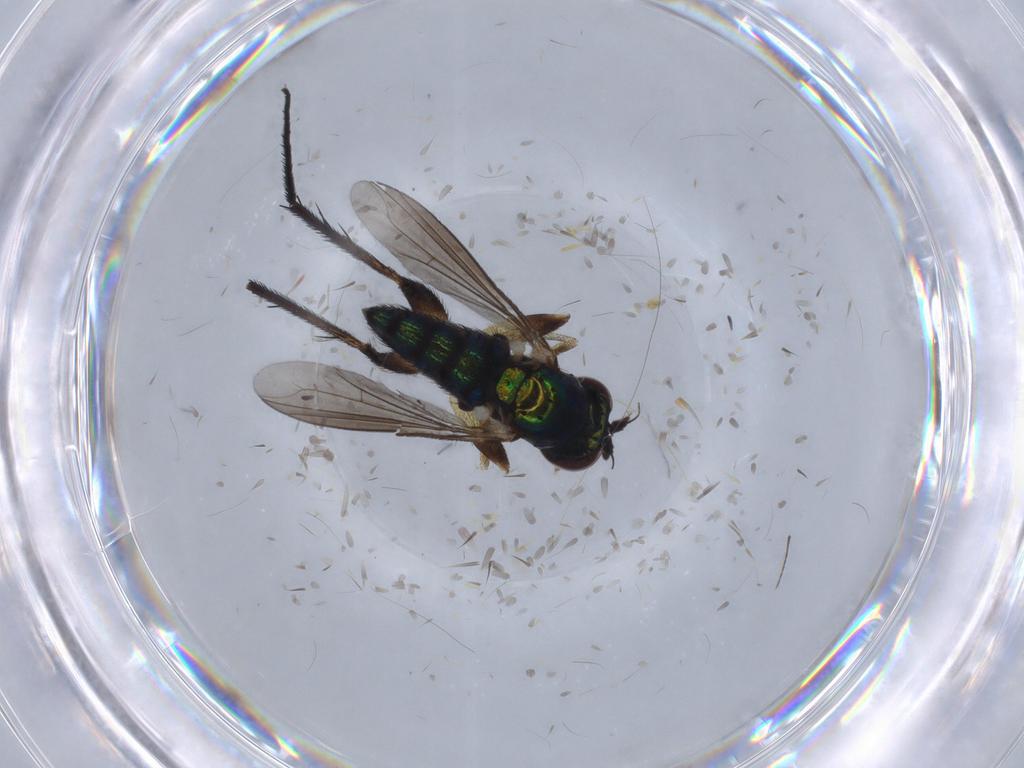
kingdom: Animalia
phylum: Arthropoda
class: Insecta
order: Diptera
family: Dolichopodidae
